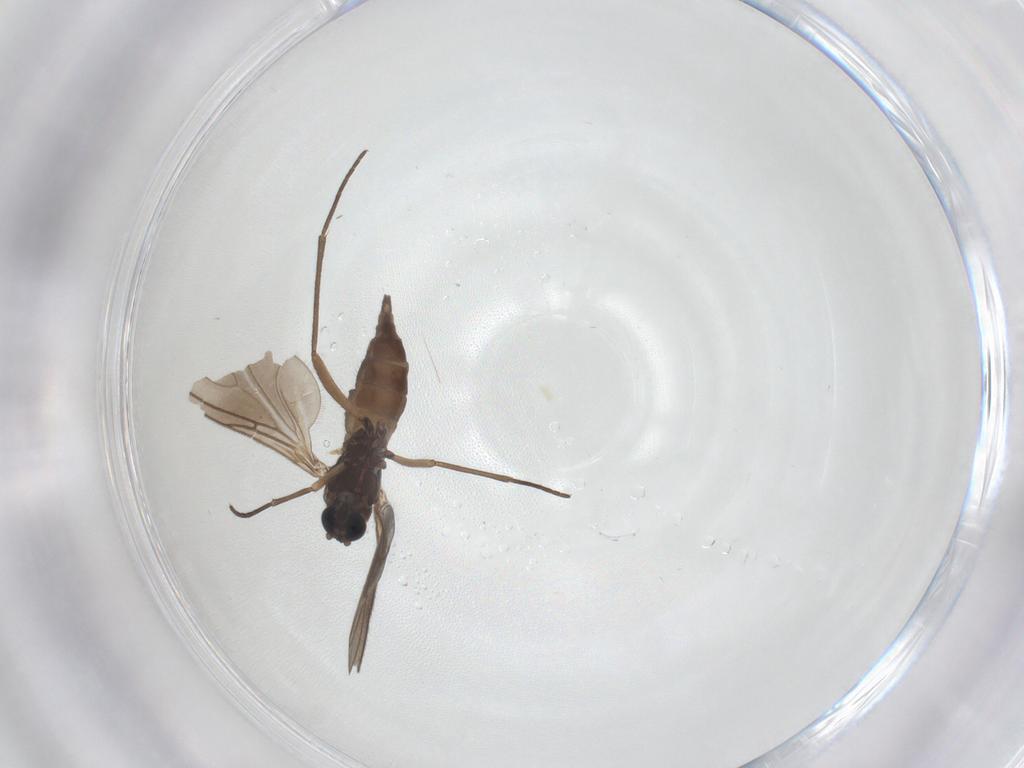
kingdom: Animalia
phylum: Arthropoda
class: Insecta
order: Diptera
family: Sciaridae
